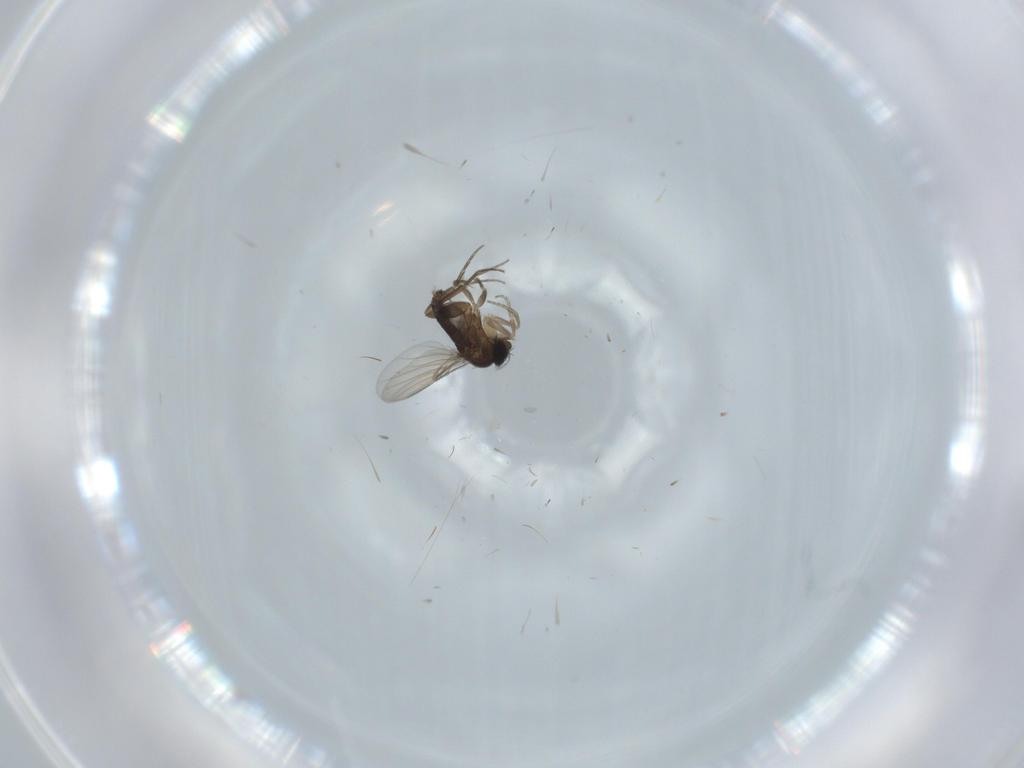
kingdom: Animalia
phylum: Arthropoda
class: Insecta
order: Diptera
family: Phoridae
